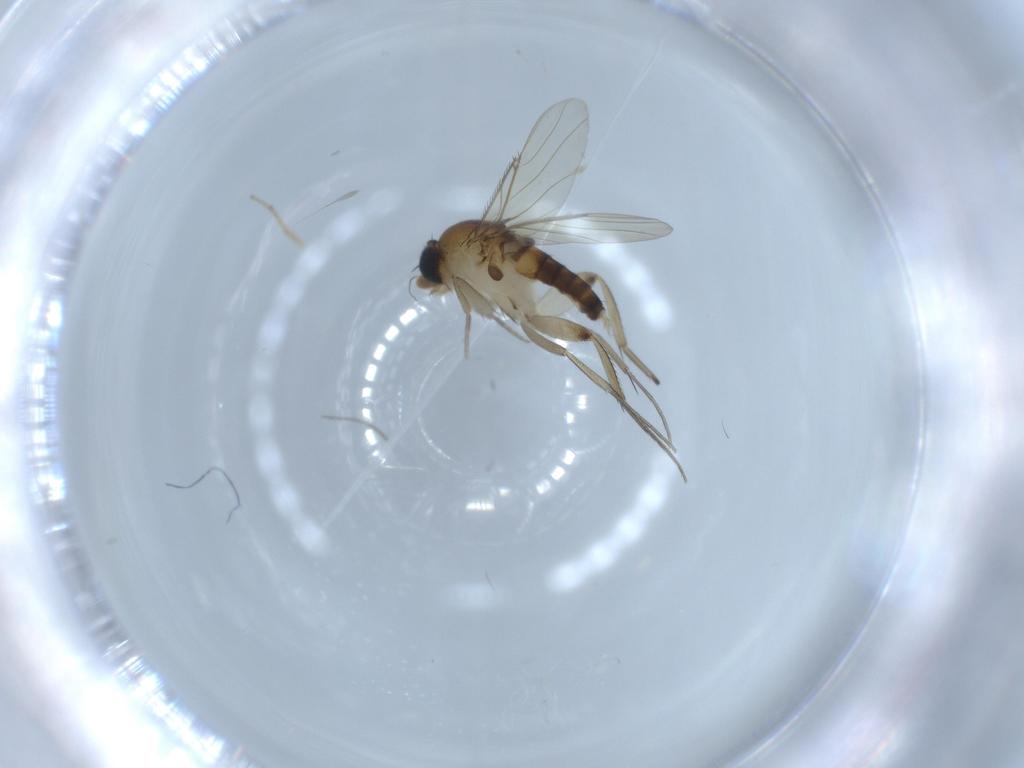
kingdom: Animalia
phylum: Arthropoda
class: Insecta
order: Diptera
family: Phoridae
